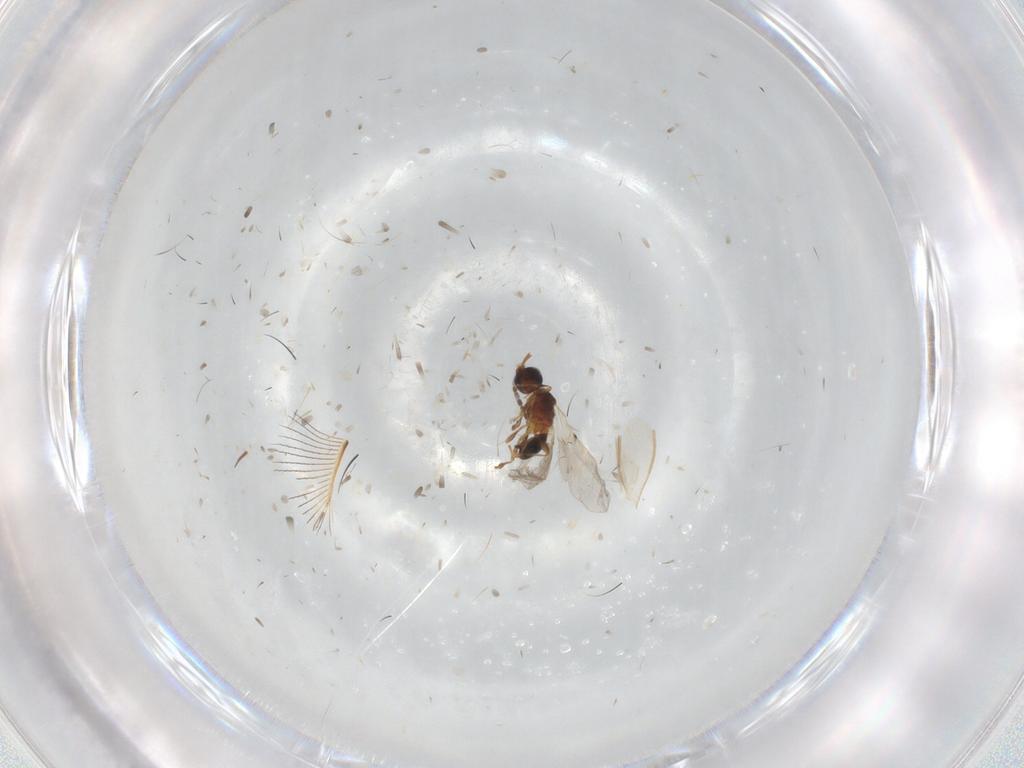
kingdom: Animalia
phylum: Arthropoda
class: Insecta
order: Hymenoptera
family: Diapriidae
